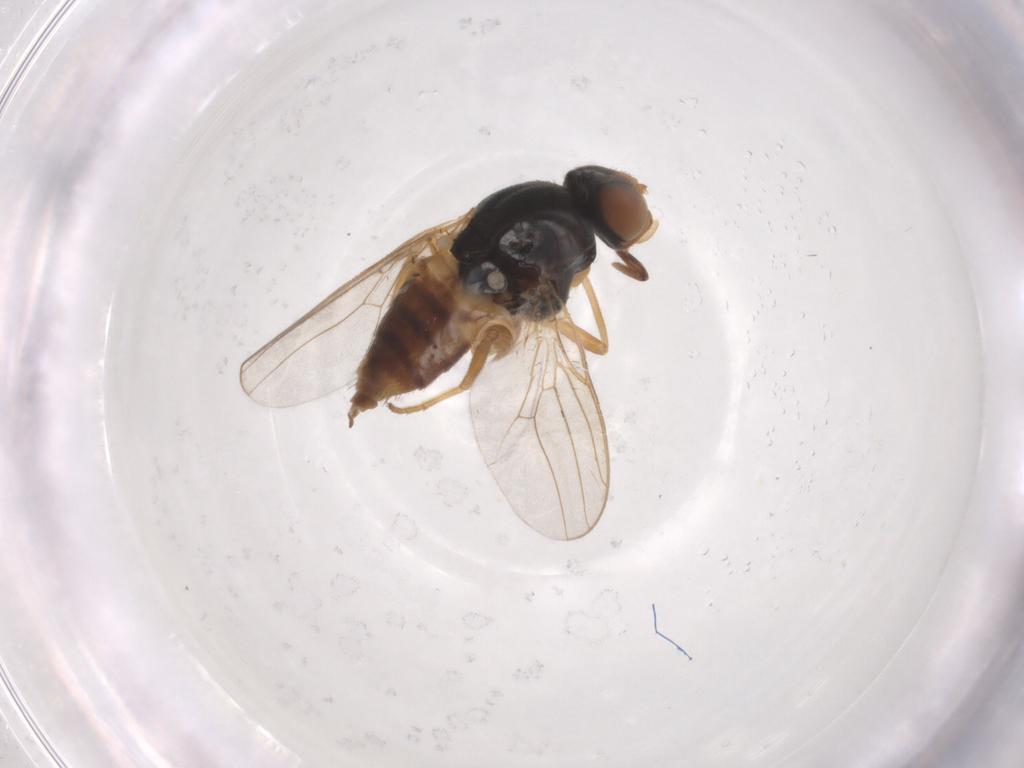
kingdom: Animalia
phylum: Arthropoda
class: Insecta
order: Diptera
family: Chloropidae
